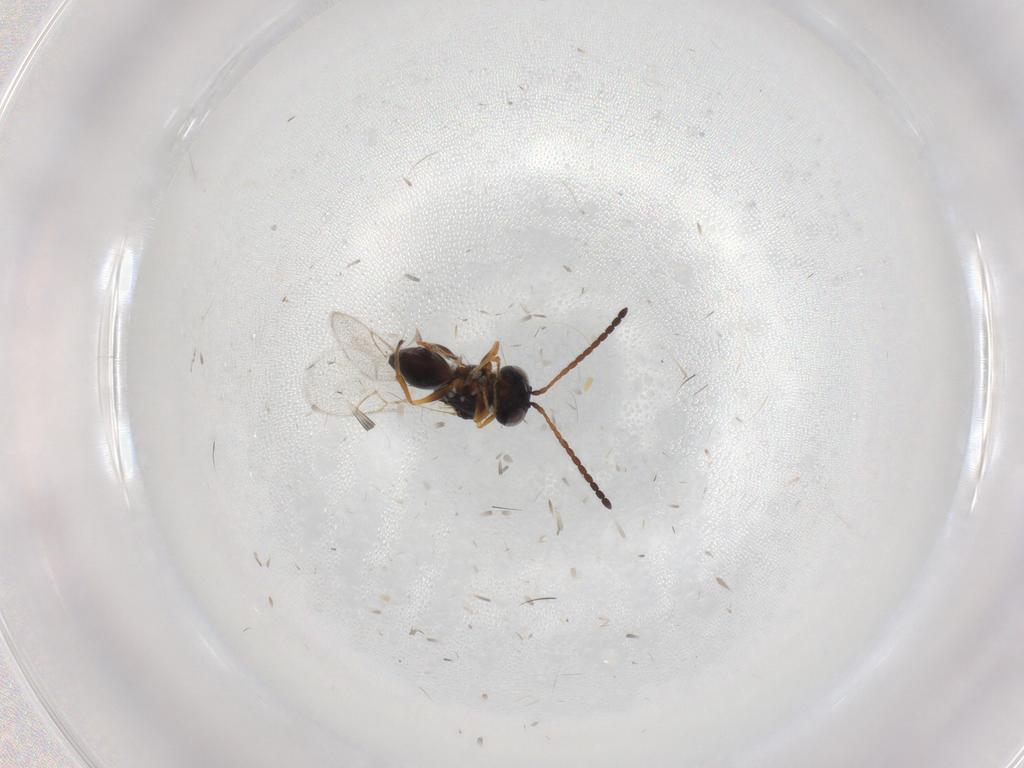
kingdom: Animalia
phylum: Arthropoda
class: Insecta
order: Hymenoptera
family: Figitidae
